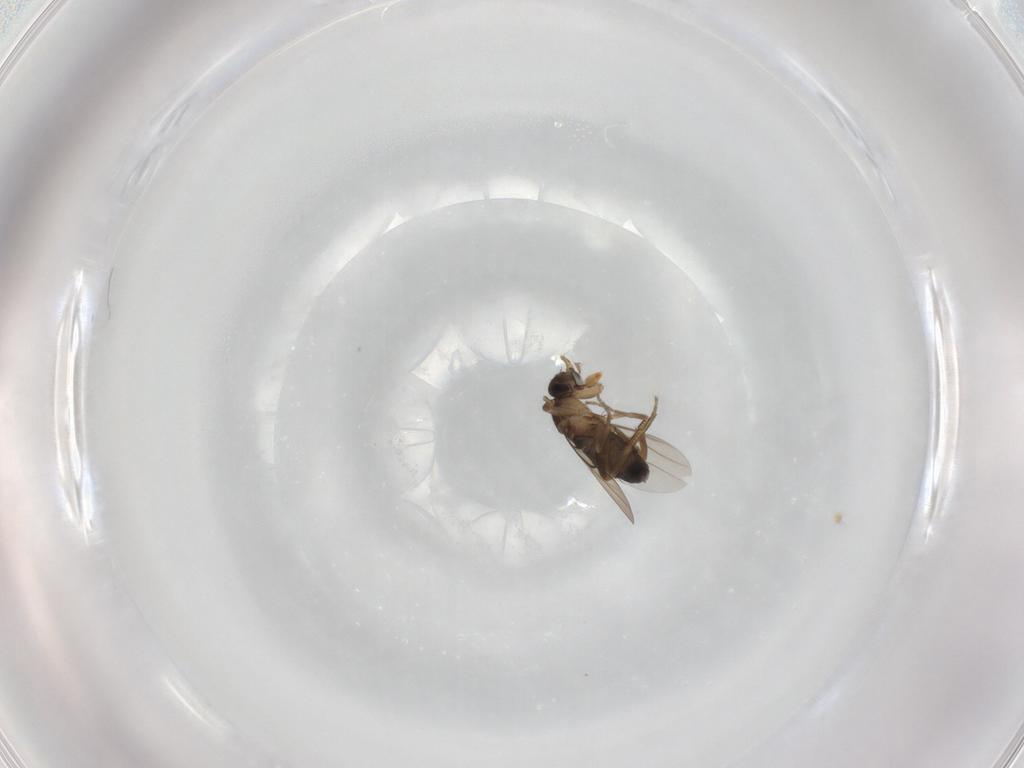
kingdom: Animalia
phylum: Arthropoda
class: Insecta
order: Diptera
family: Phoridae
